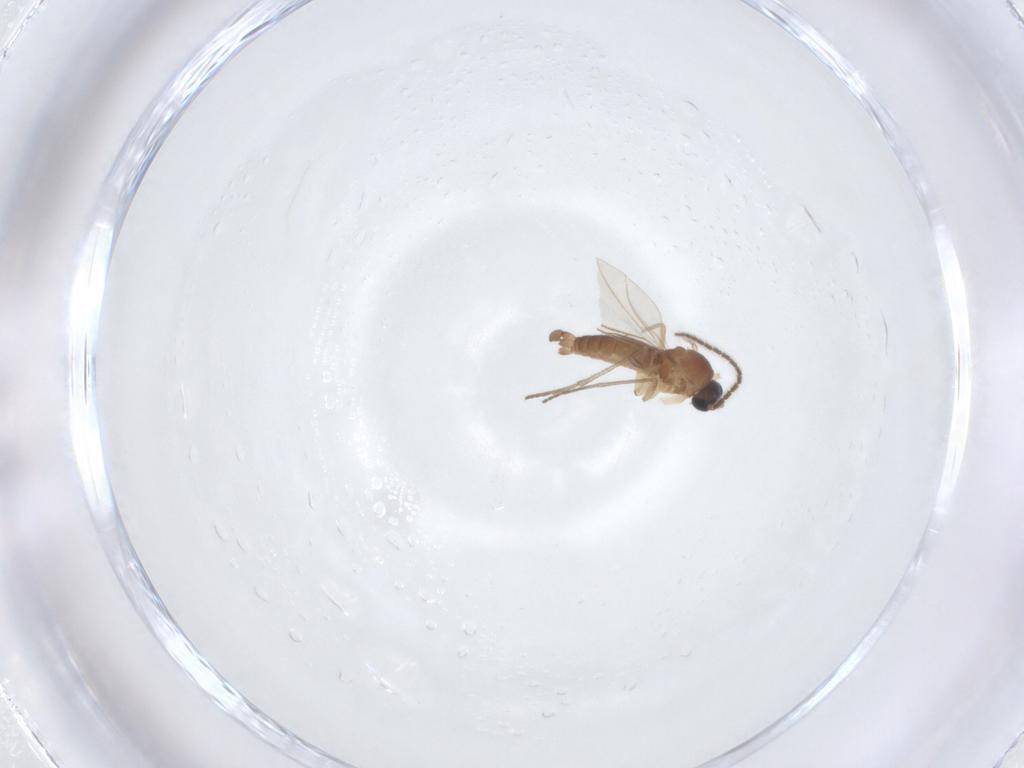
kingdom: Animalia
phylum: Arthropoda
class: Insecta
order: Diptera
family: Sciaridae
